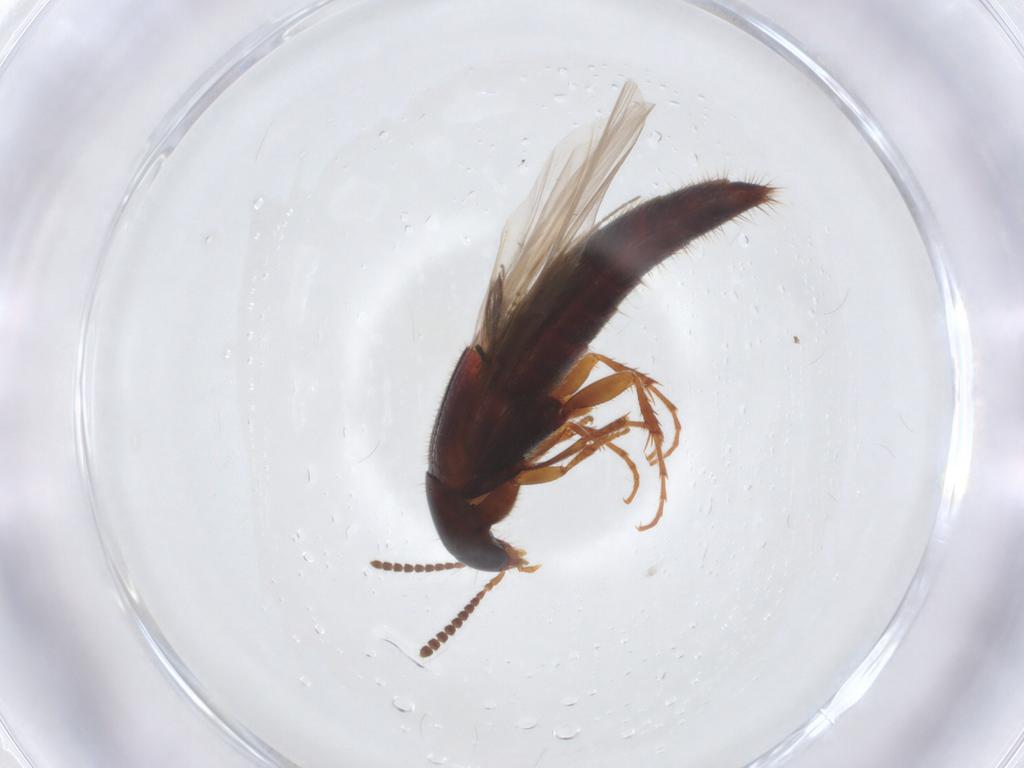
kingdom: Animalia
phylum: Arthropoda
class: Insecta
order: Coleoptera
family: Staphylinidae
